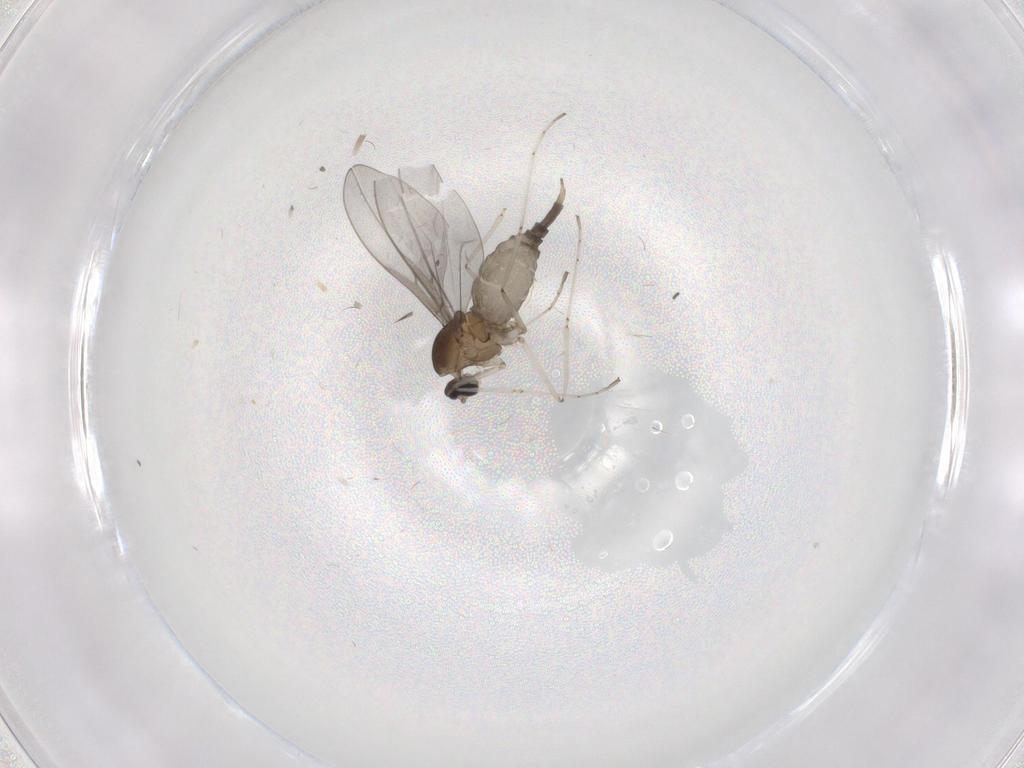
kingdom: Animalia
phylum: Arthropoda
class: Insecta
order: Diptera
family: Sciaridae
